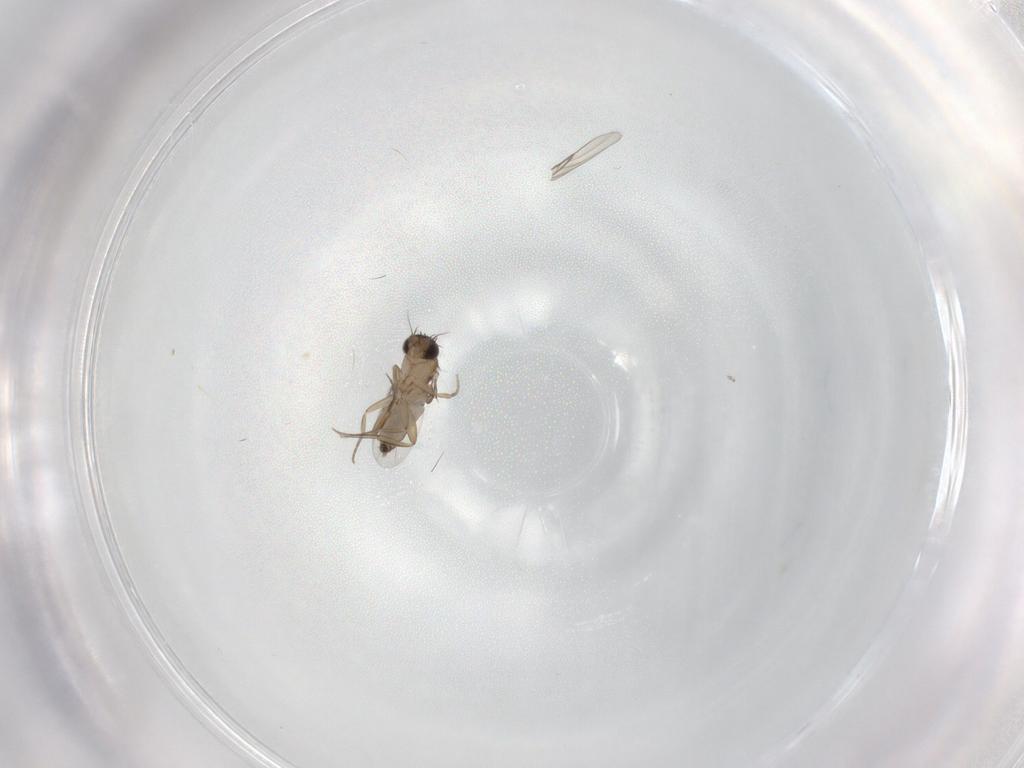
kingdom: Animalia
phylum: Arthropoda
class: Insecta
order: Diptera
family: Phoridae
